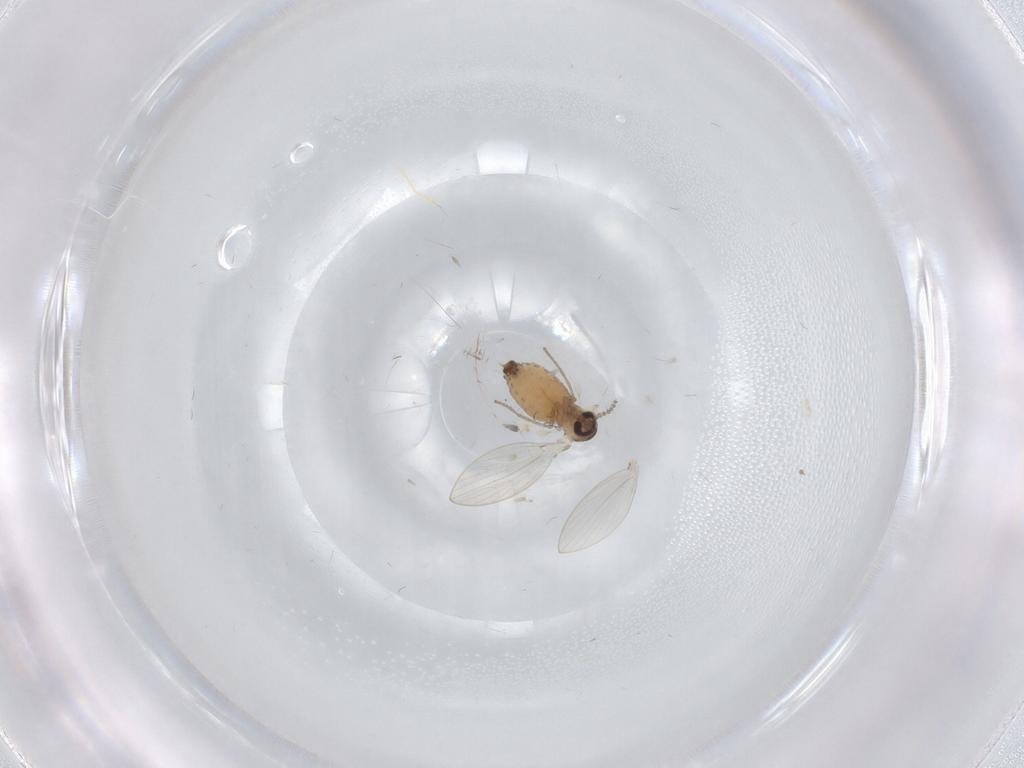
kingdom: Animalia
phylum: Arthropoda
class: Insecta
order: Diptera
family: Psychodidae
